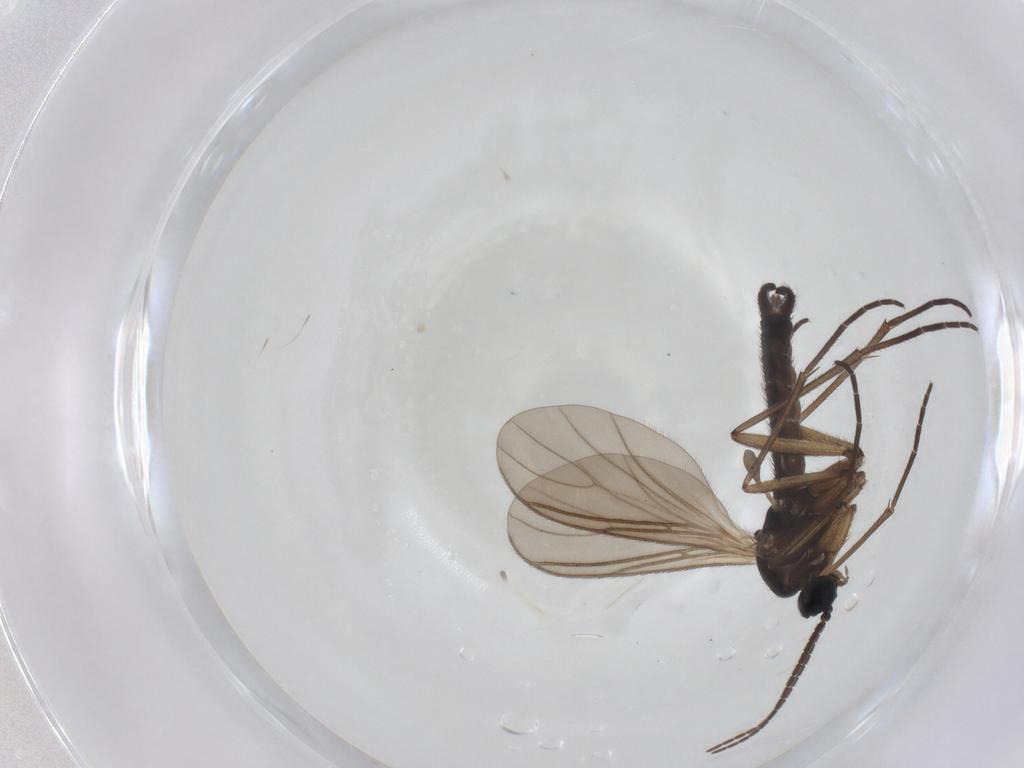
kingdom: Animalia
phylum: Arthropoda
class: Insecta
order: Diptera
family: Sciaridae
